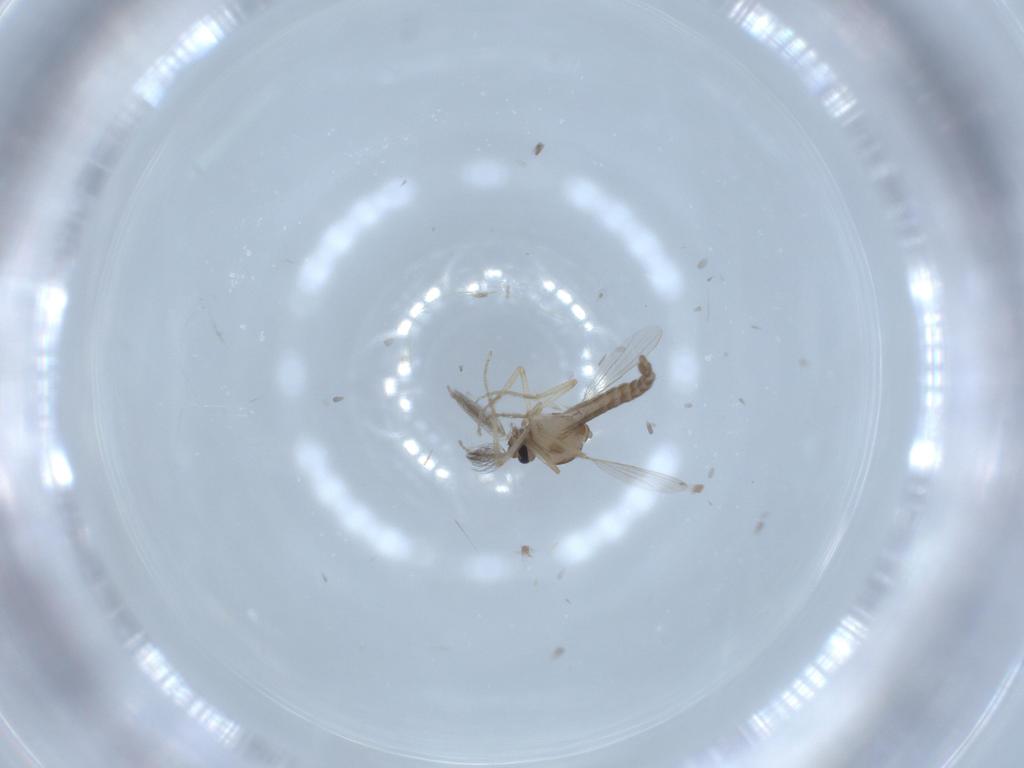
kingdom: Animalia
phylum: Arthropoda
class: Insecta
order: Diptera
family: Ceratopogonidae
